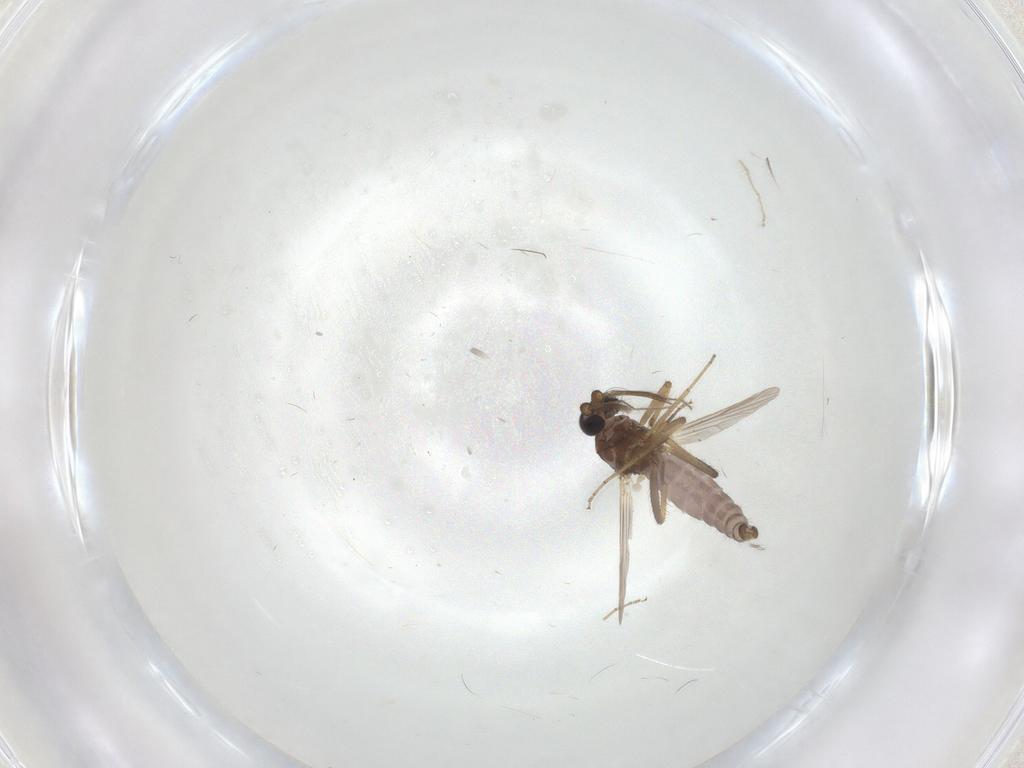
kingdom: Animalia
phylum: Arthropoda
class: Insecta
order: Diptera
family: Ceratopogonidae
